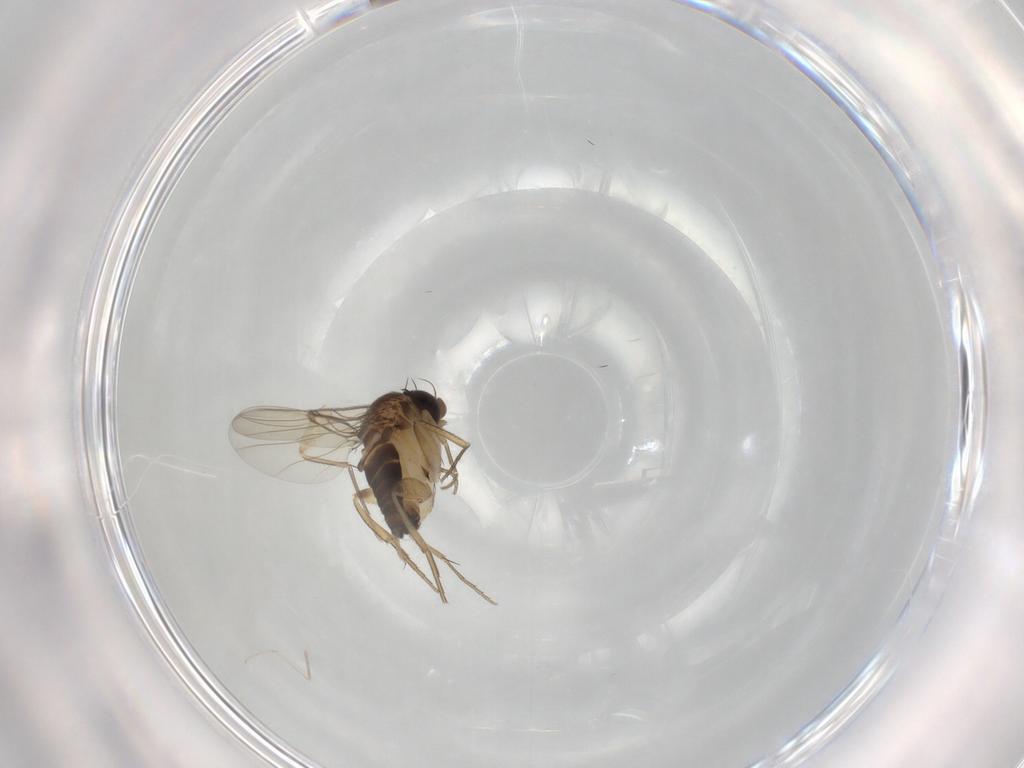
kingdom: Animalia
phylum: Arthropoda
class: Insecta
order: Diptera
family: Phoridae
